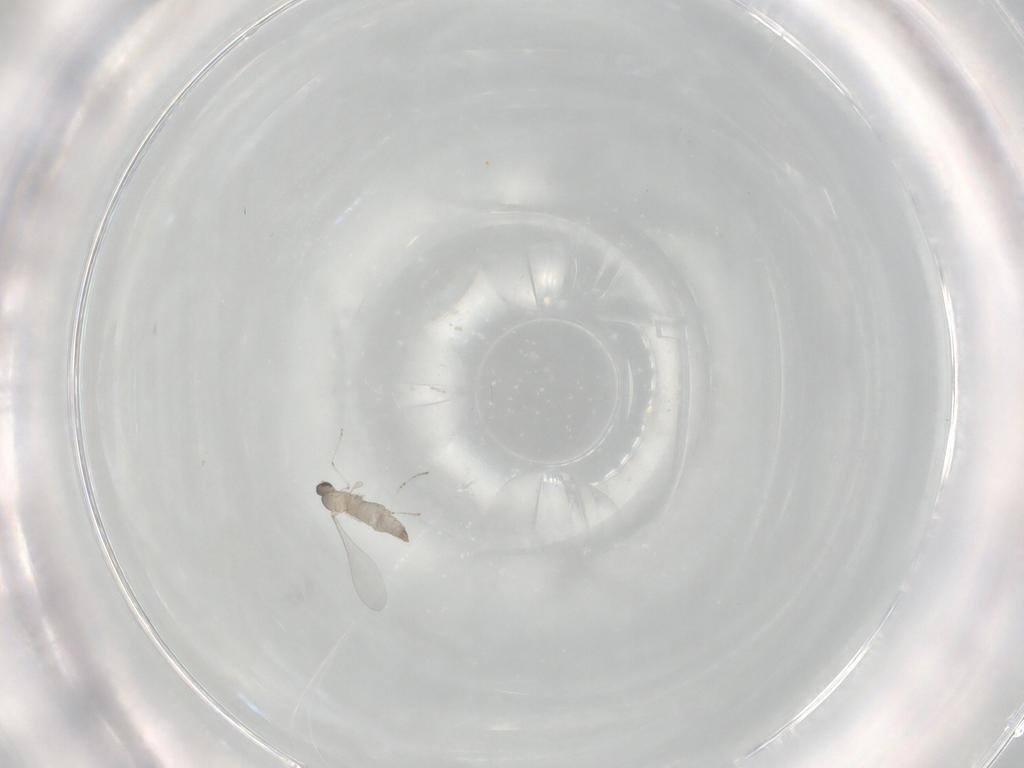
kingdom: Animalia
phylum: Arthropoda
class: Insecta
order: Diptera
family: Cecidomyiidae
